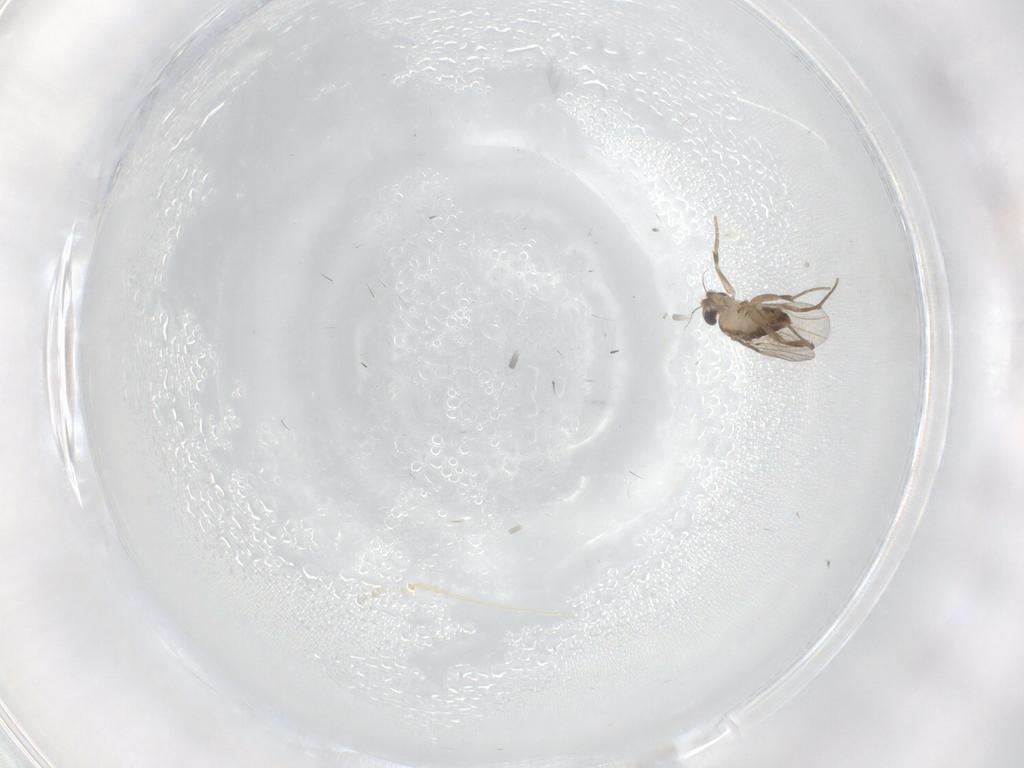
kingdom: Animalia
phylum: Arthropoda
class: Insecta
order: Diptera
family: Phoridae
